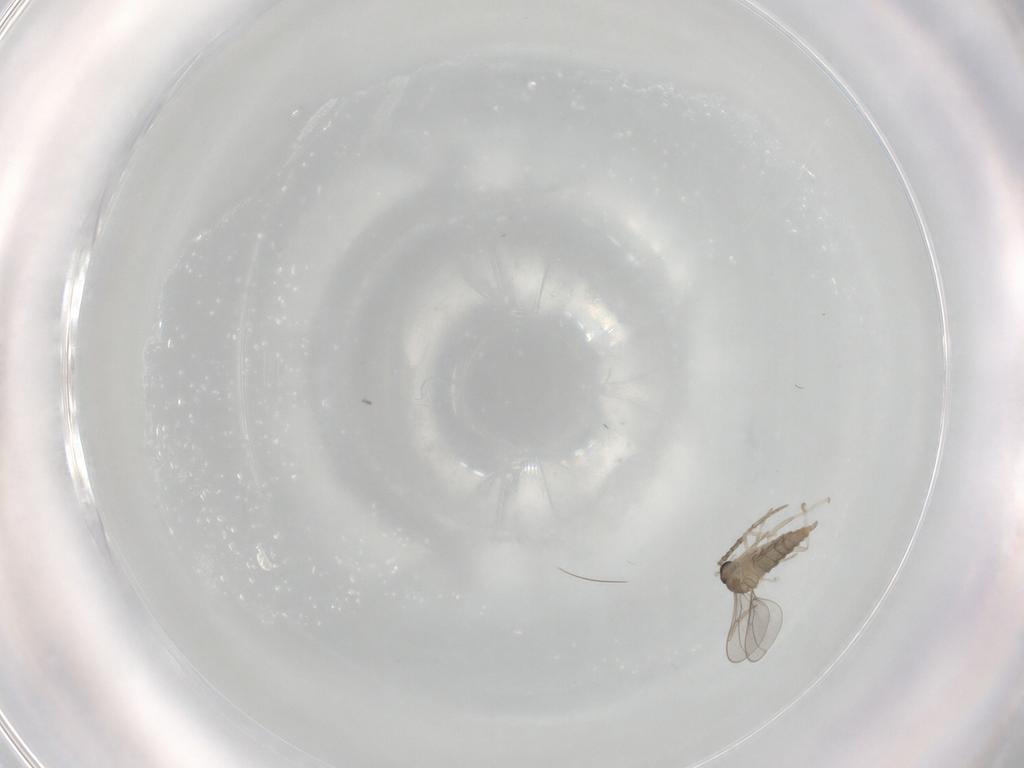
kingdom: Animalia
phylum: Arthropoda
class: Insecta
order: Diptera
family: Cecidomyiidae
